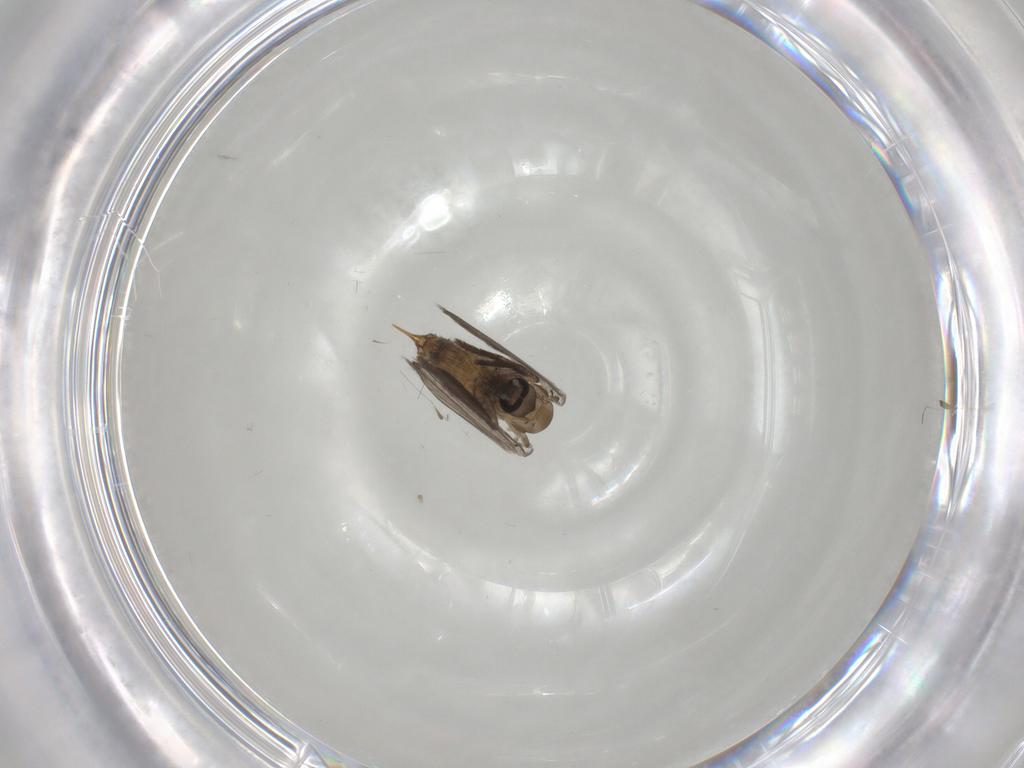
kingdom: Animalia
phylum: Arthropoda
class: Insecta
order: Diptera
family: Psychodidae
